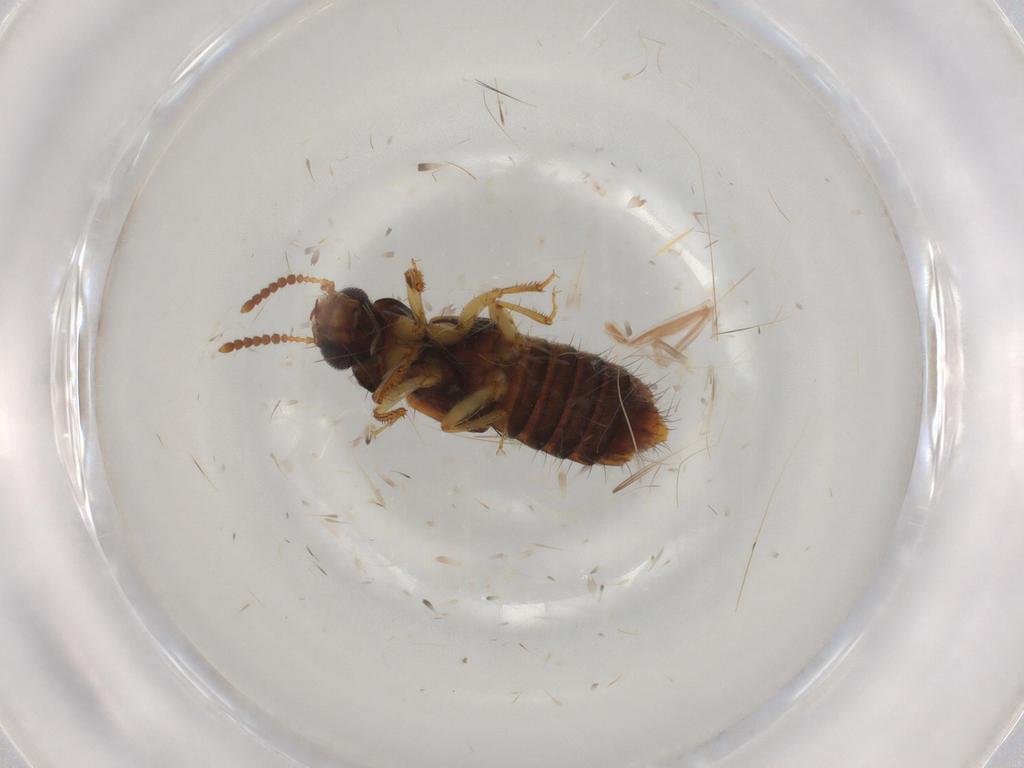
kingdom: Animalia
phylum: Arthropoda
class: Insecta
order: Coleoptera
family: Staphylinidae
